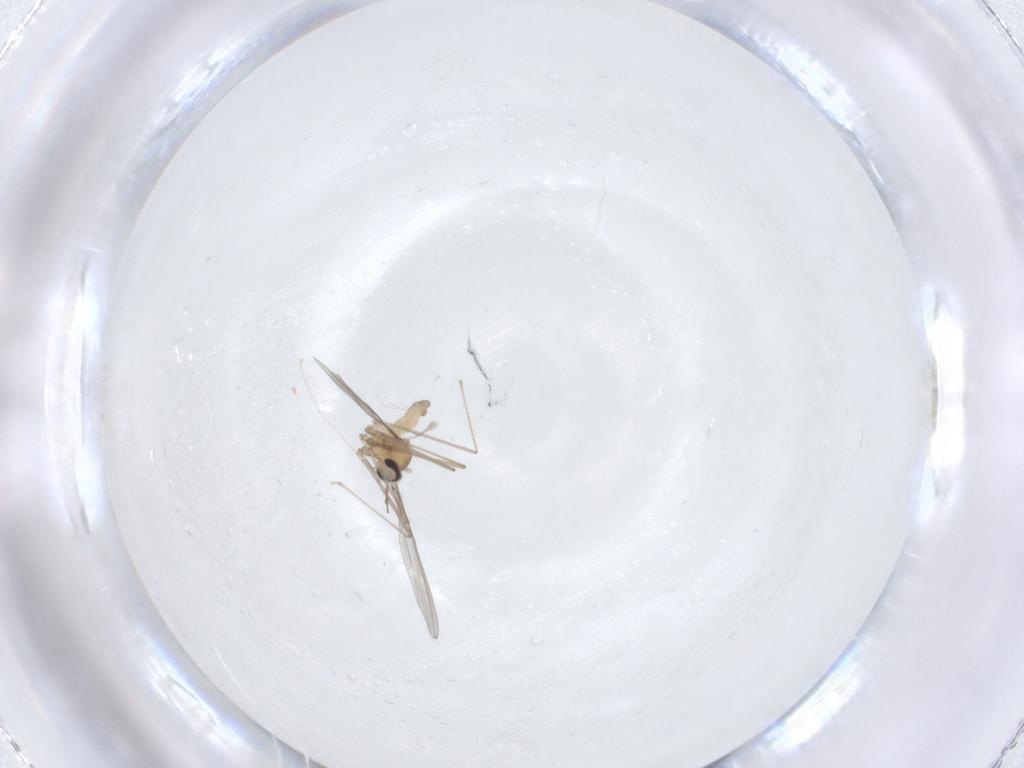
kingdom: Animalia
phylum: Arthropoda
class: Insecta
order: Diptera
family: Cecidomyiidae
